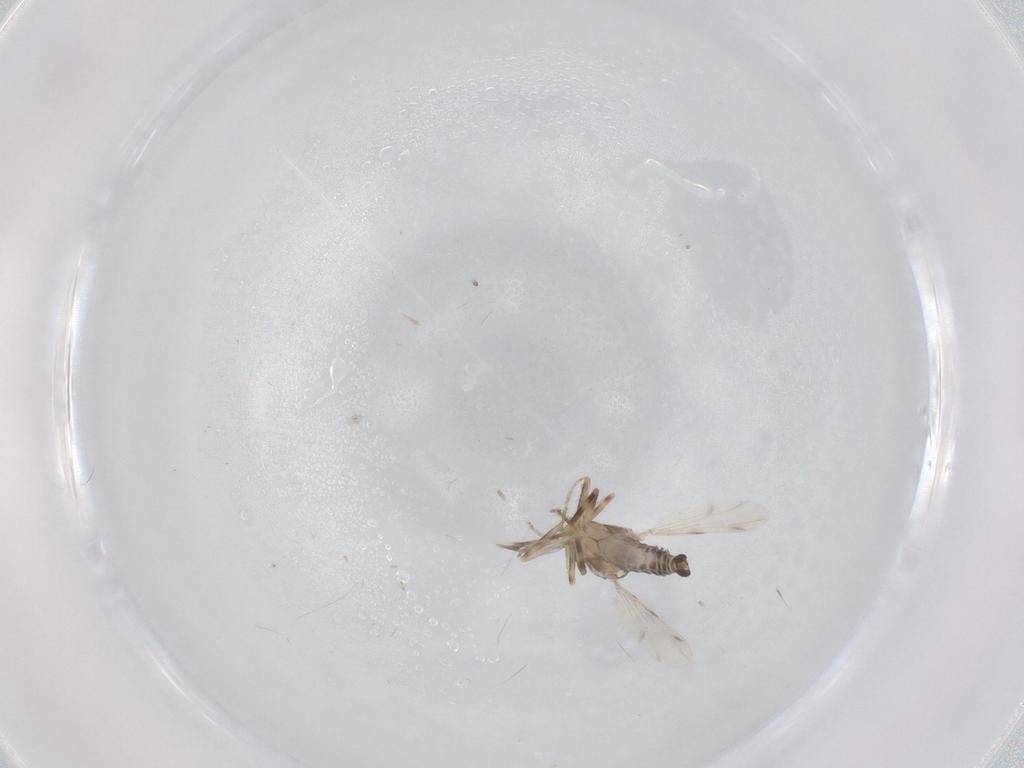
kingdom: Animalia
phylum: Arthropoda
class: Insecta
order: Diptera
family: Ceratopogonidae
